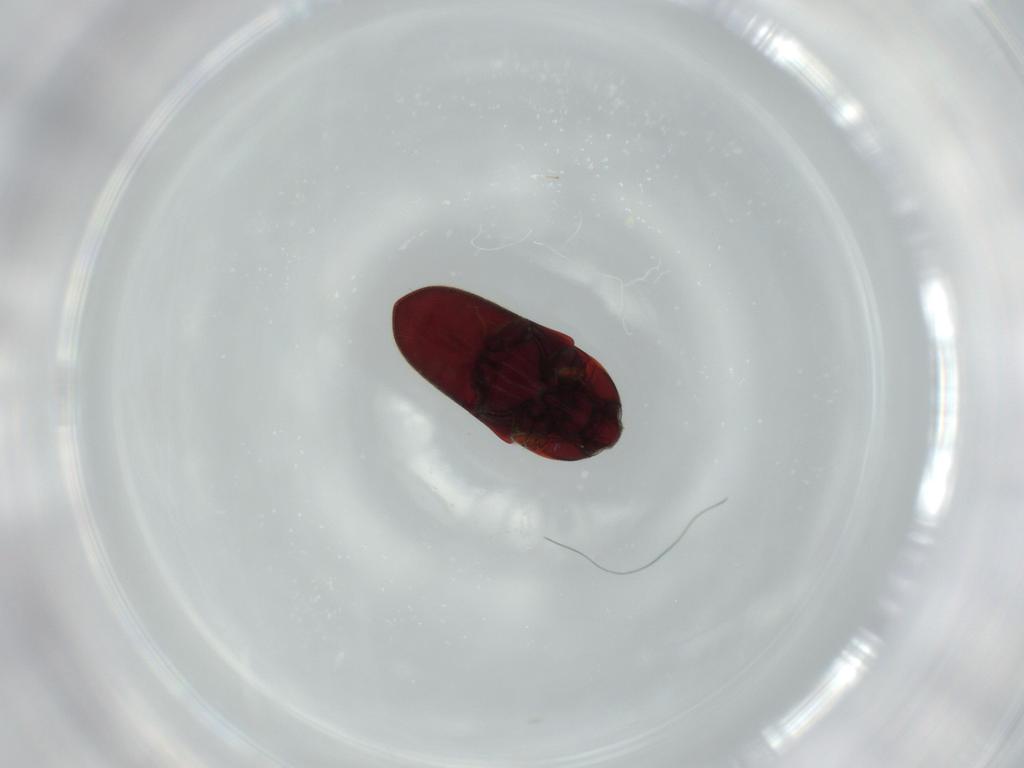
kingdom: Animalia
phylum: Arthropoda
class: Insecta
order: Coleoptera
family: Throscidae
